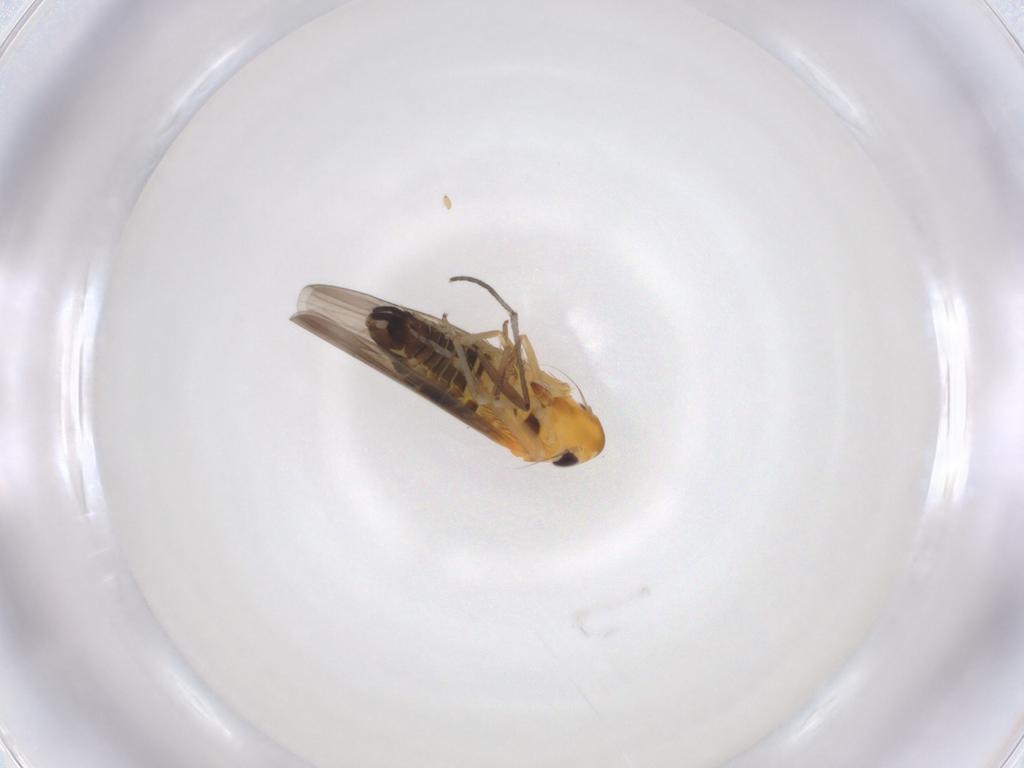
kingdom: Animalia
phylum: Arthropoda
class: Insecta
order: Hemiptera
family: Cicadellidae
